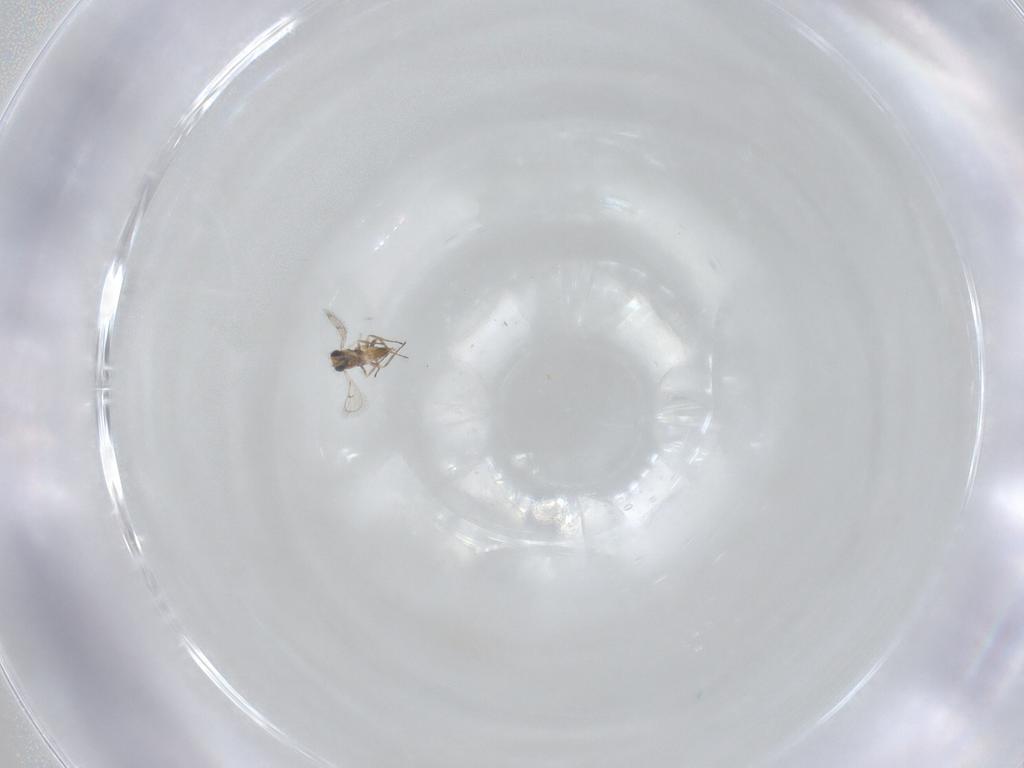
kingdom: Animalia
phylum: Arthropoda
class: Insecta
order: Hymenoptera
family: Trichogrammatidae
